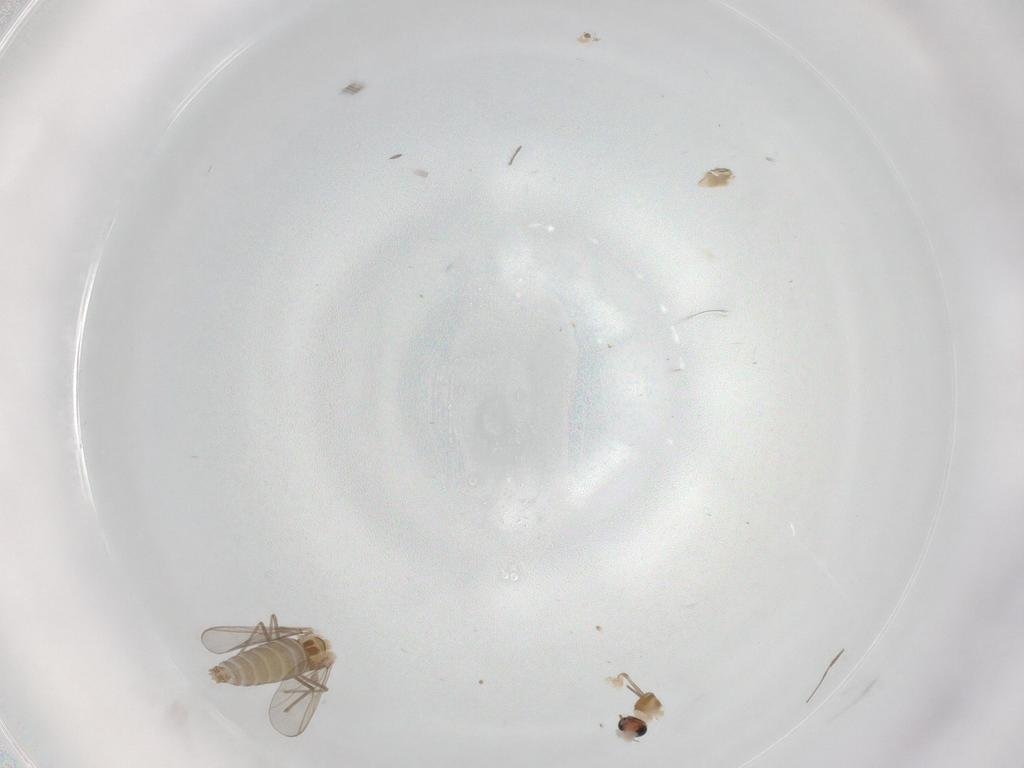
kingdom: Animalia
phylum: Arthropoda
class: Insecta
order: Diptera
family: Chironomidae
